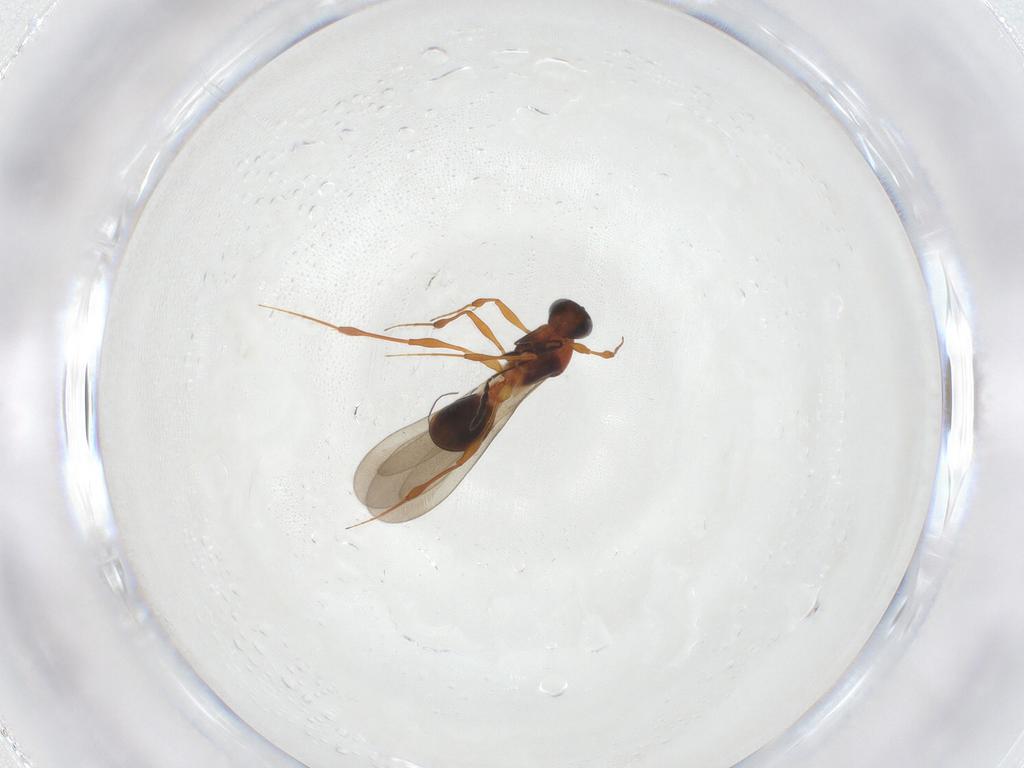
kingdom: Animalia
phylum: Arthropoda
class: Insecta
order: Hymenoptera
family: Platygastridae
